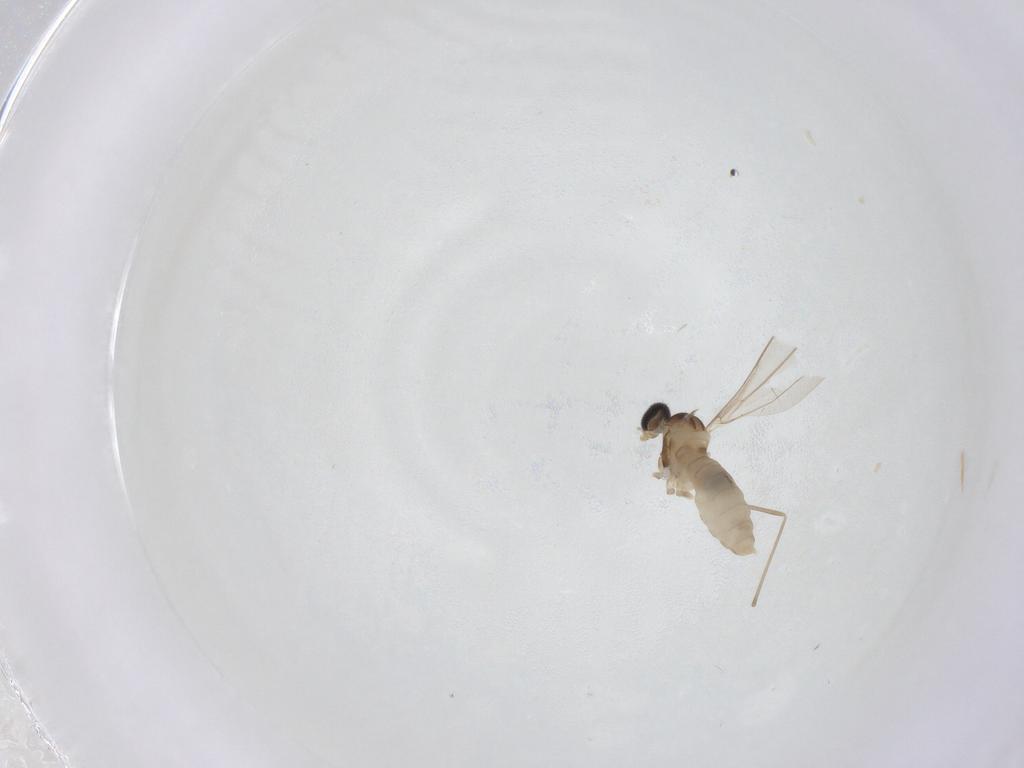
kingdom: Animalia
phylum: Arthropoda
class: Insecta
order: Diptera
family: Cecidomyiidae
